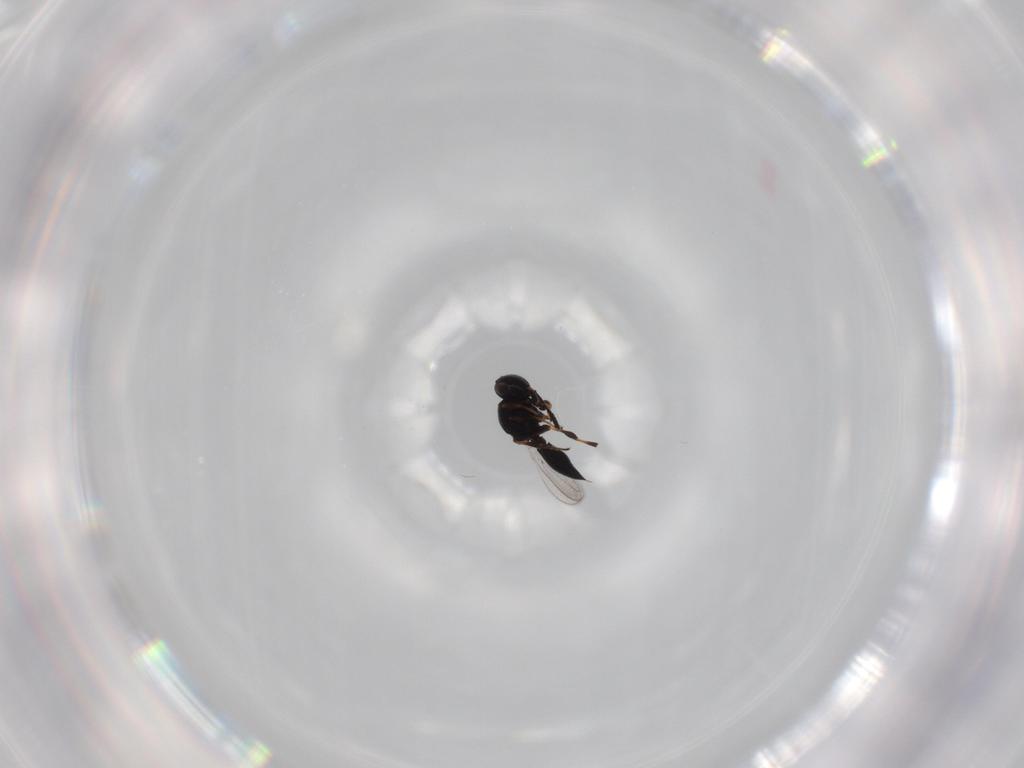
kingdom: Animalia
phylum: Arthropoda
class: Insecta
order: Hymenoptera
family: Platygastridae
